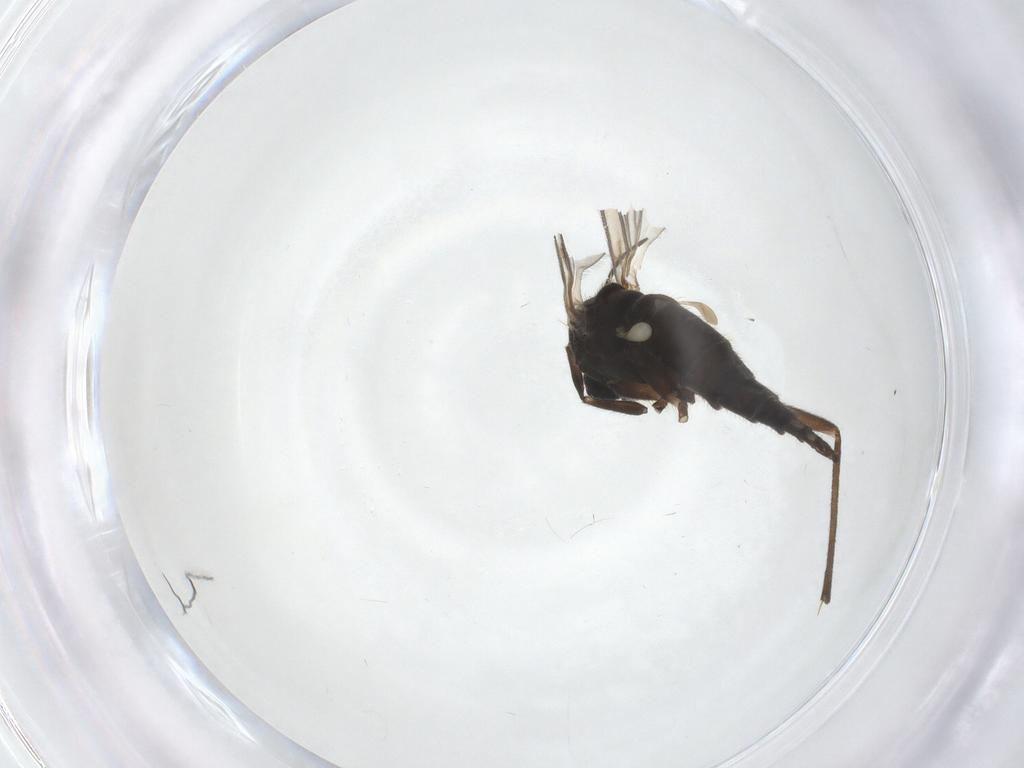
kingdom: Animalia
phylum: Arthropoda
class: Insecta
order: Diptera
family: Sciaridae
